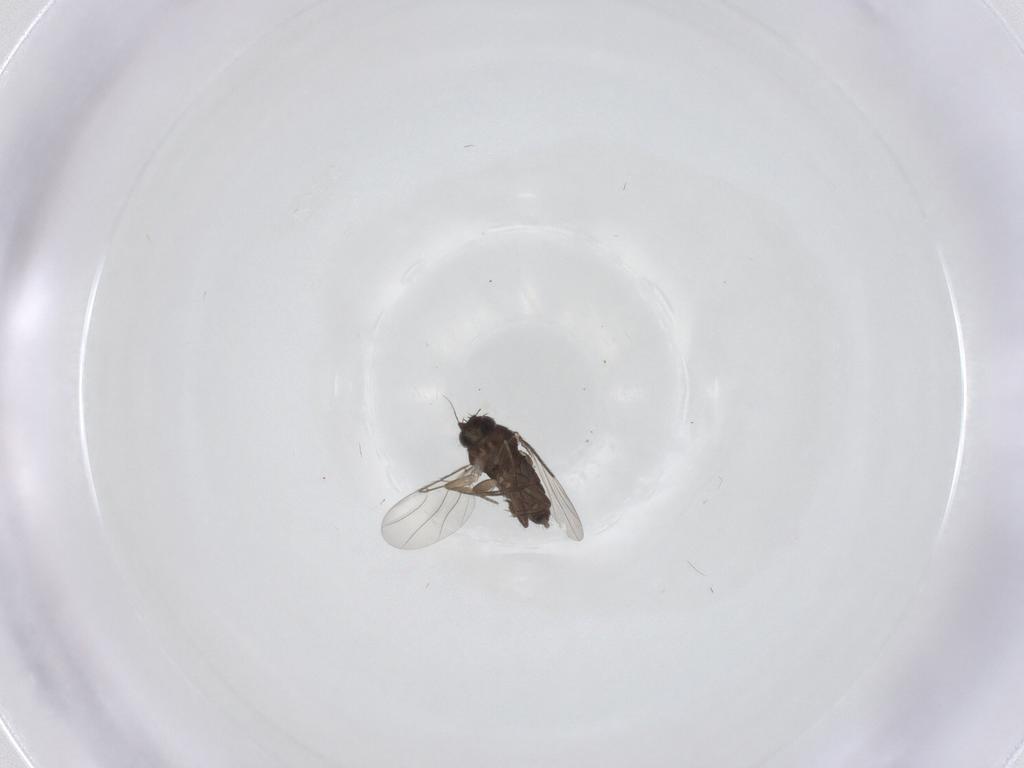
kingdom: Animalia
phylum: Arthropoda
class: Insecta
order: Diptera
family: Phoridae
